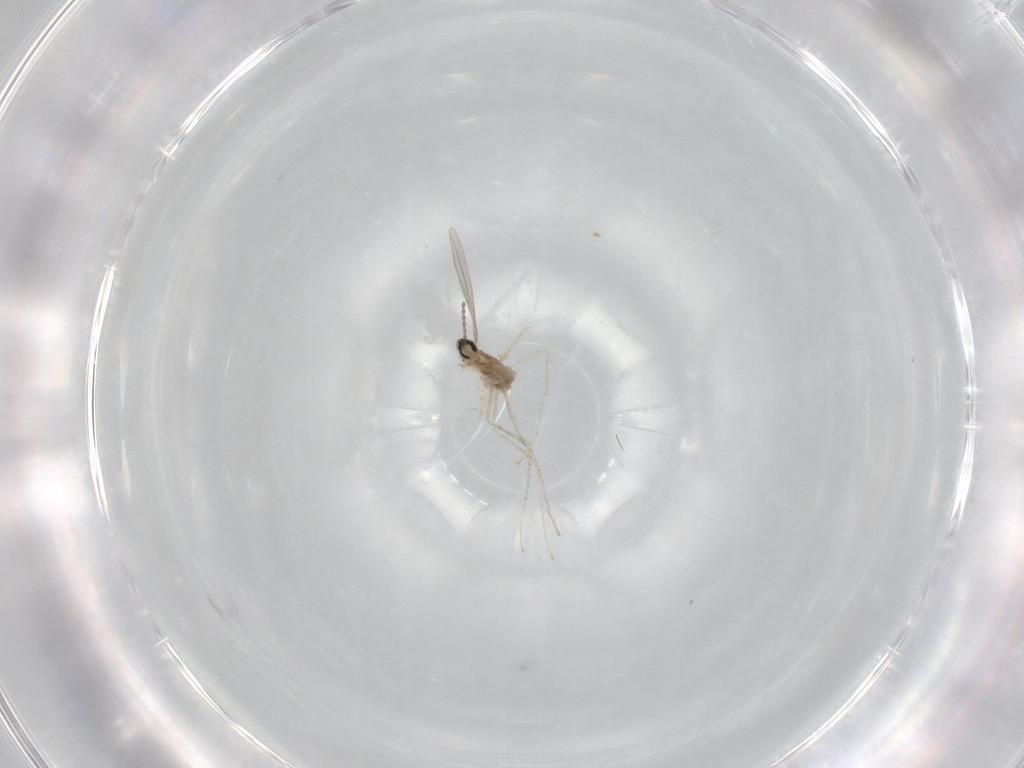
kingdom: Animalia
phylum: Arthropoda
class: Insecta
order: Diptera
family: Cecidomyiidae
